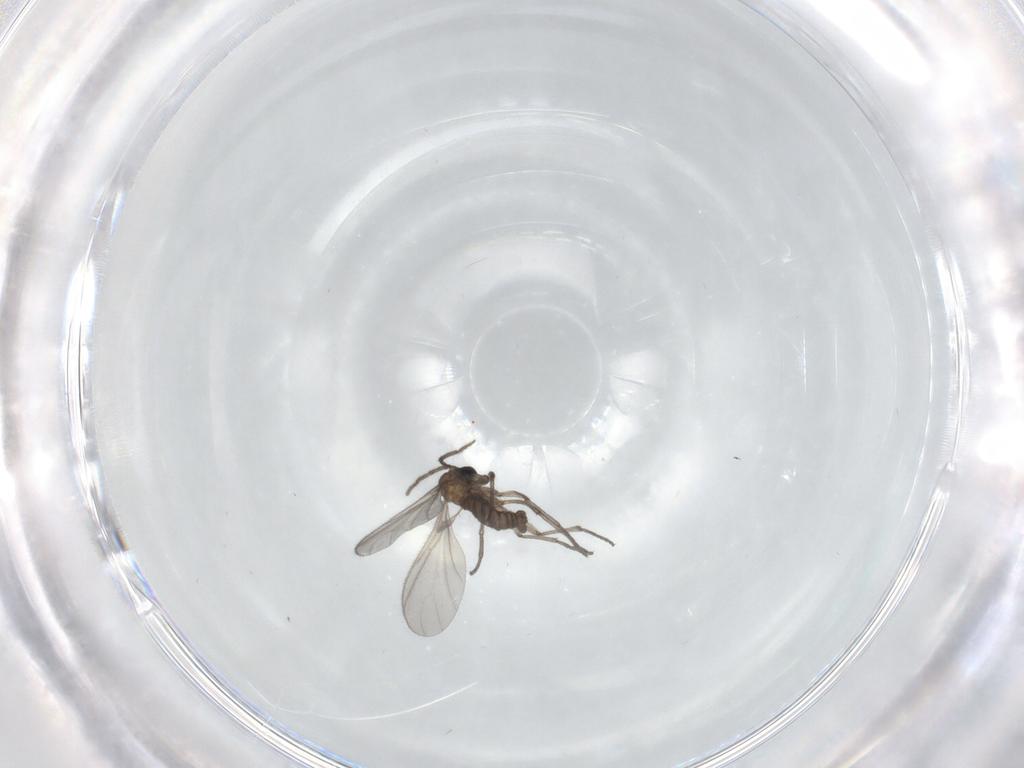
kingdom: Animalia
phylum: Arthropoda
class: Insecta
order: Diptera
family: Sciaridae
